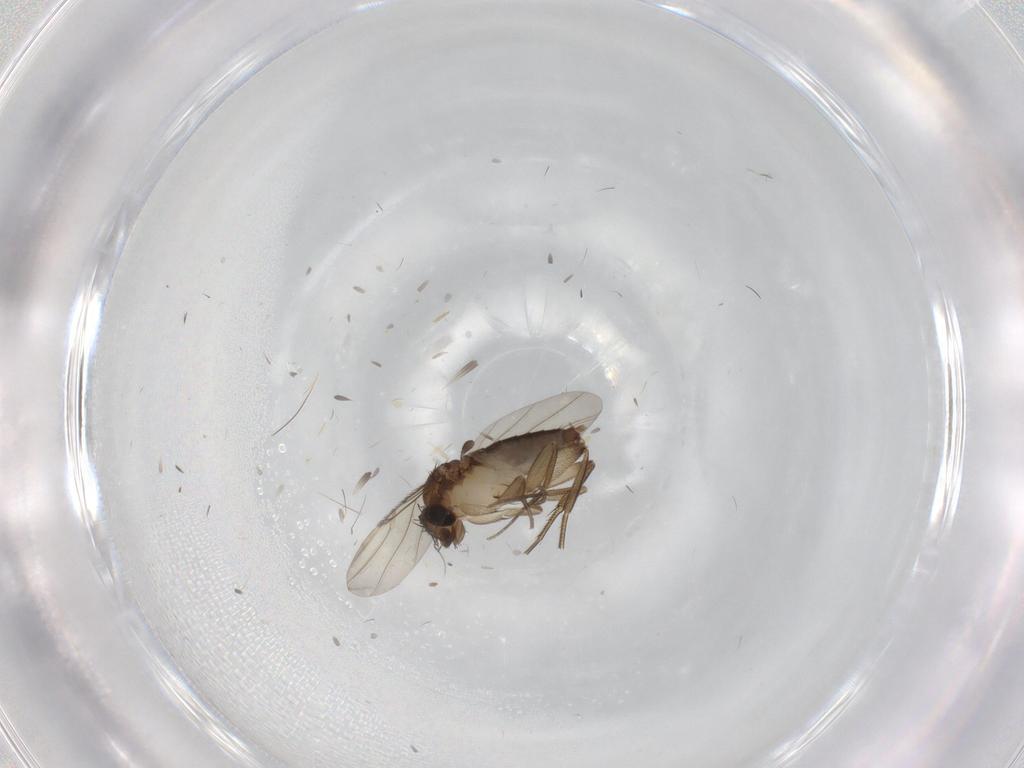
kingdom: Animalia
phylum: Arthropoda
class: Insecta
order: Diptera
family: Phoridae
